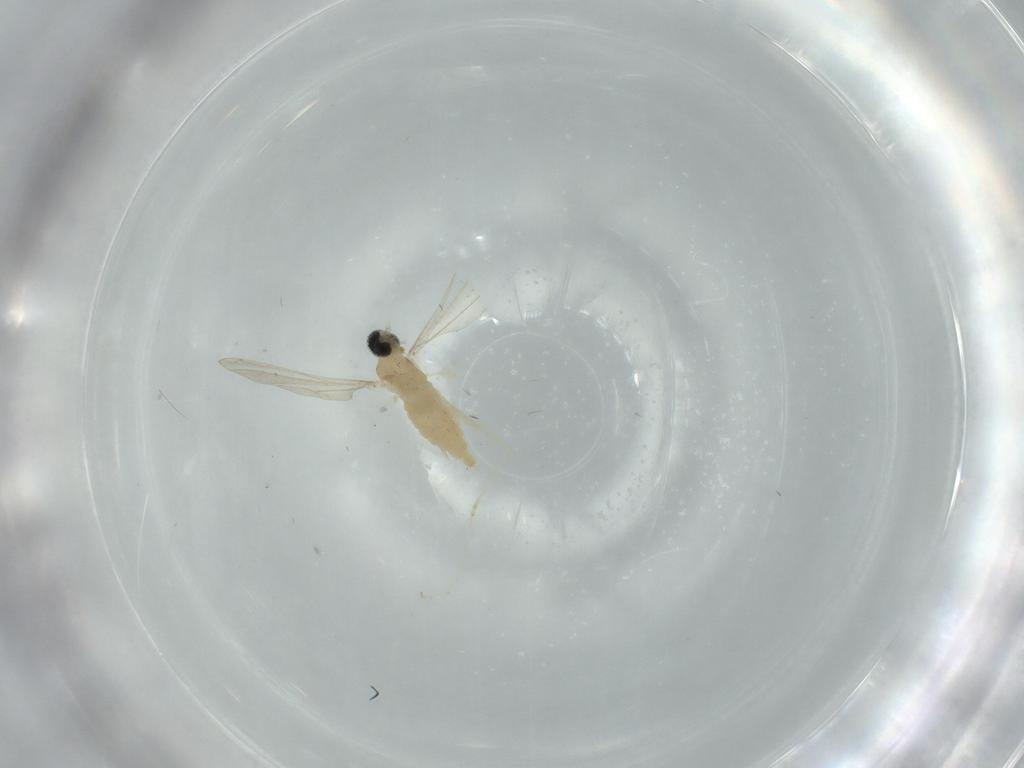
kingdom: Animalia
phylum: Arthropoda
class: Insecta
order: Diptera
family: Cecidomyiidae
